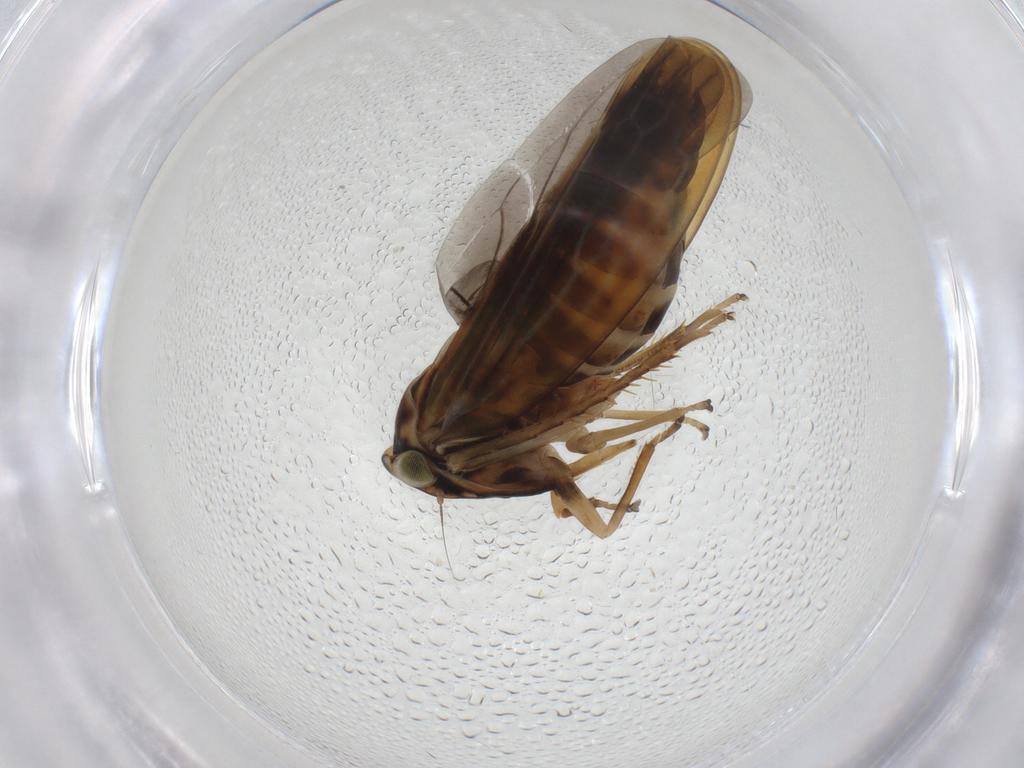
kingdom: Animalia
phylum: Arthropoda
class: Insecta
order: Hemiptera
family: Cicadellidae
